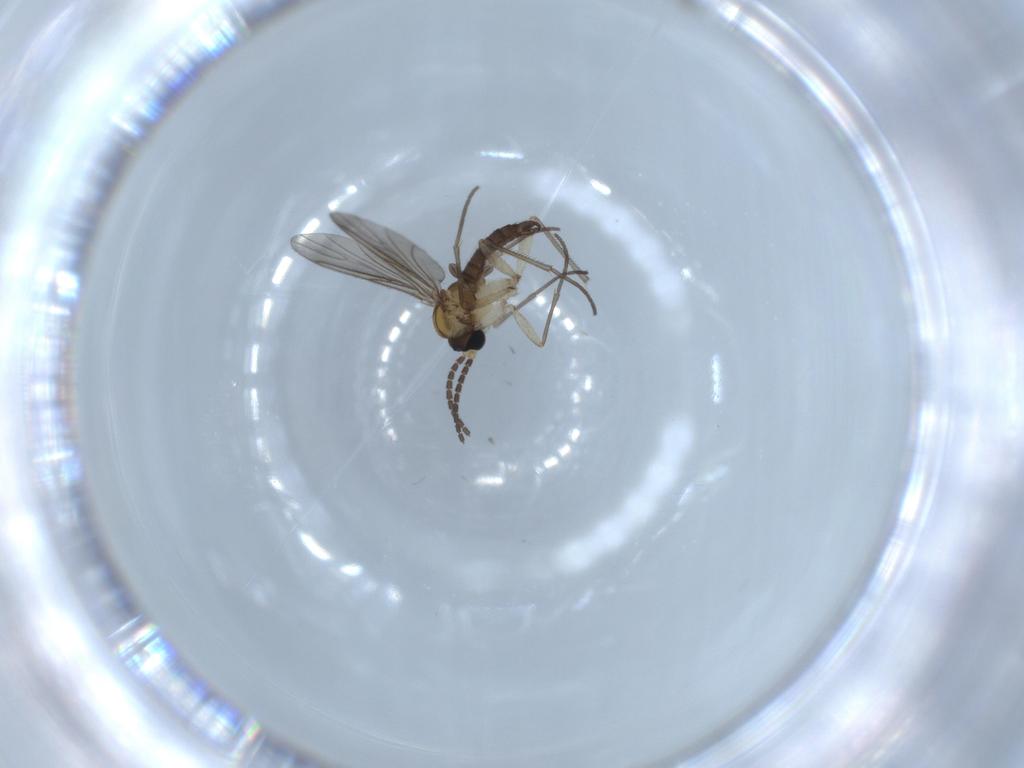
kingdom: Animalia
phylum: Arthropoda
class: Insecta
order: Diptera
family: Sciaridae
